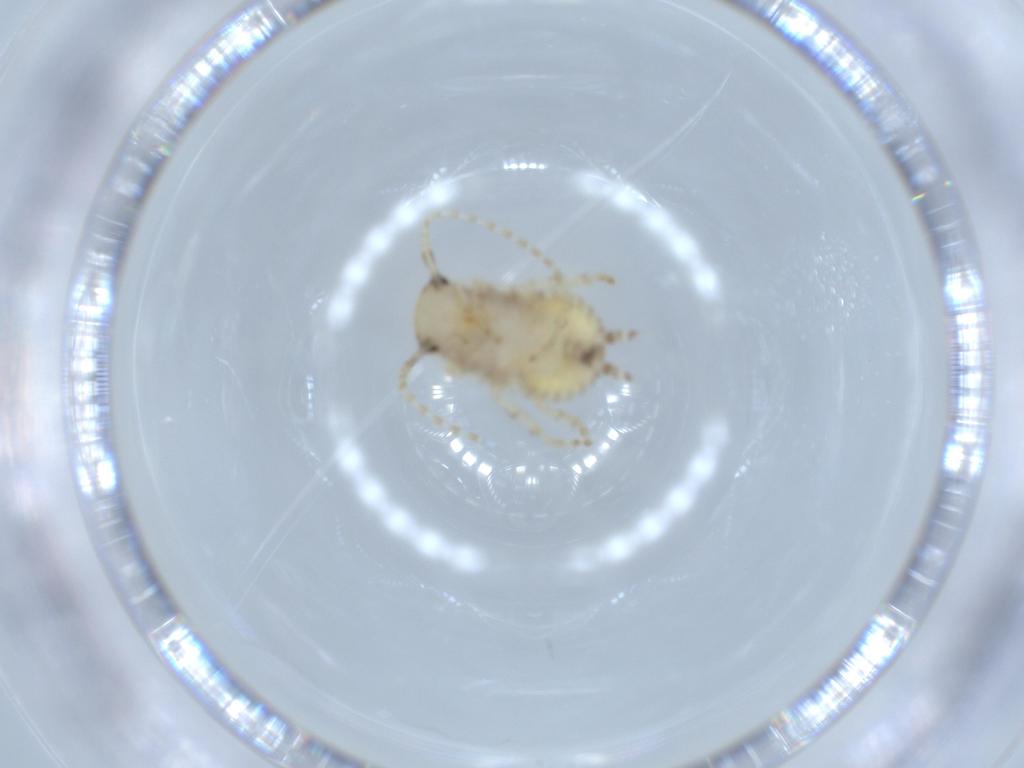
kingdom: Animalia
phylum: Arthropoda
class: Insecta
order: Blattodea
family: Ectobiidae
